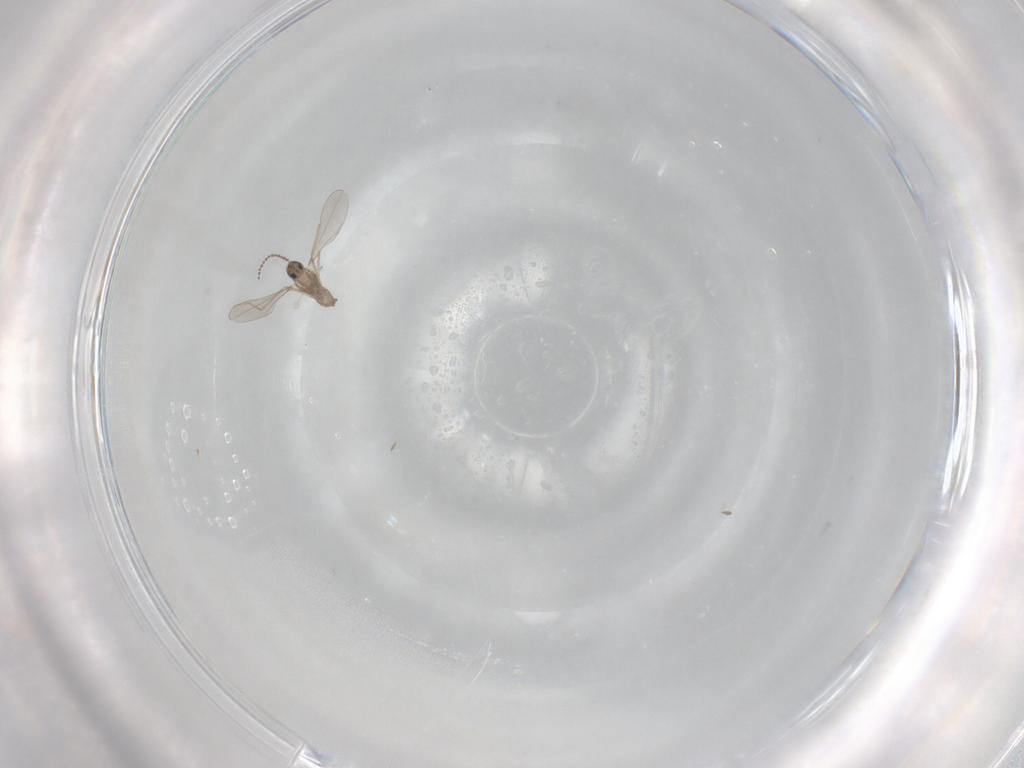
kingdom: Animalia
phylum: Arthropoda
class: Insecta
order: Diptera
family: Cecidomyiidae
